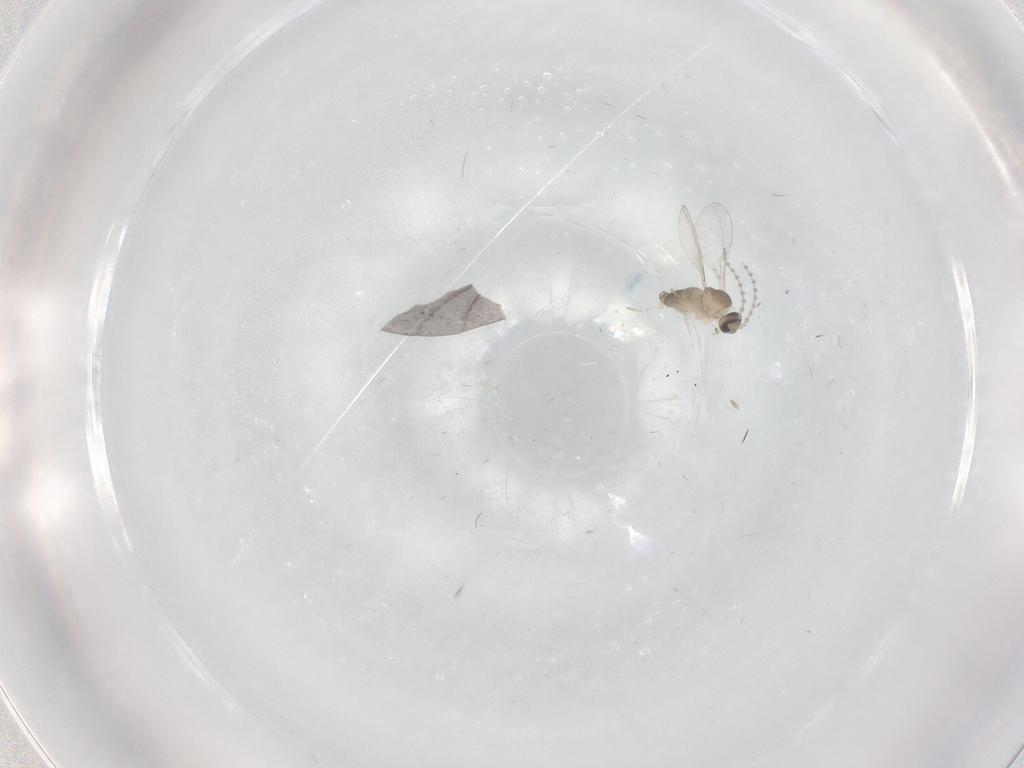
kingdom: Animalia
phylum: Arthropoda
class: Insecta
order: Diptera
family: Cecidomyiidae
